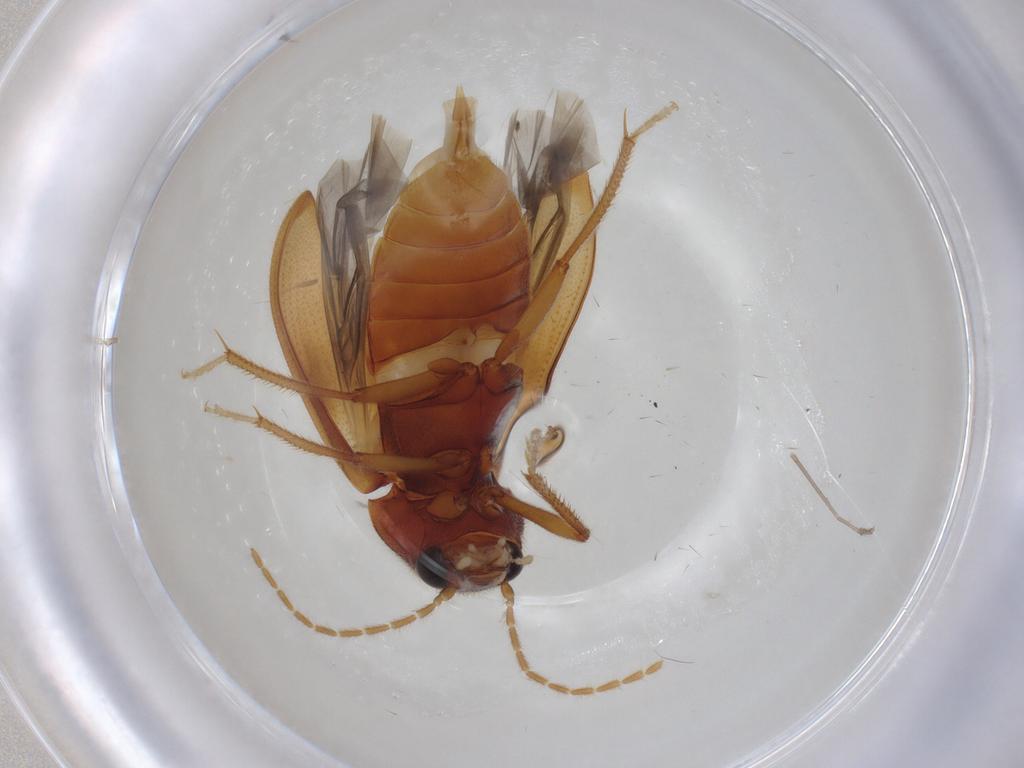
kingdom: Animalia
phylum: Arthropoda
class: Insecta
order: Coleoptera
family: Ptilodactylidae
